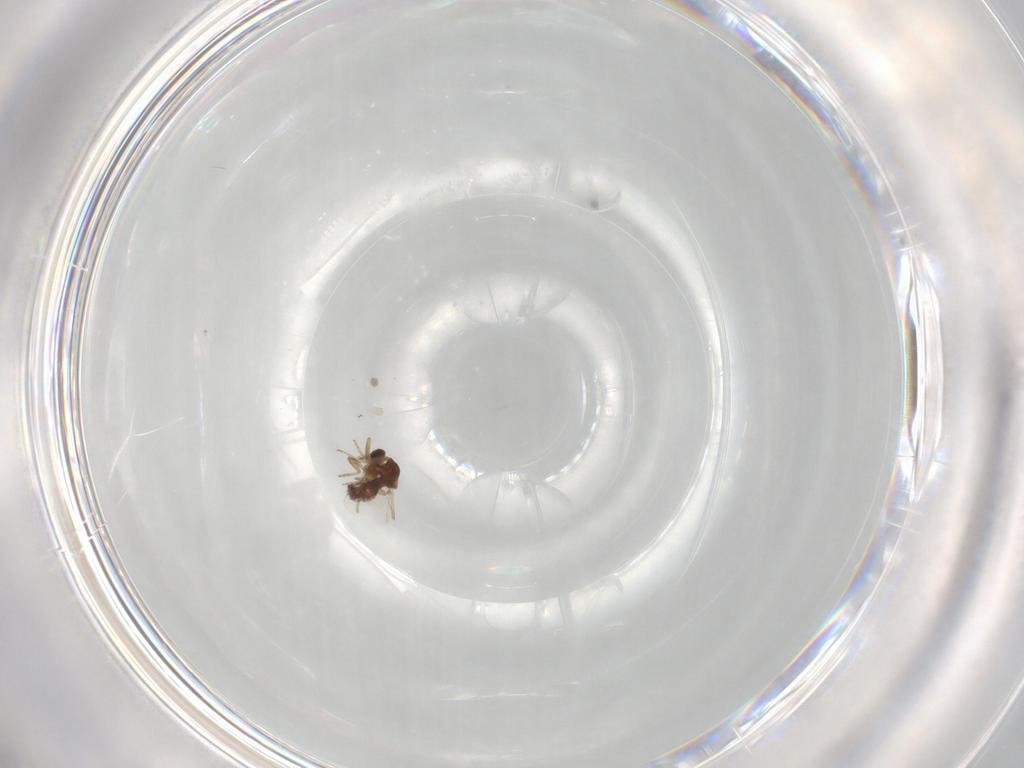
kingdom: Animalia
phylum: Arthropoda
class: Insecta
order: Diptera
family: Ceratopogonidae
